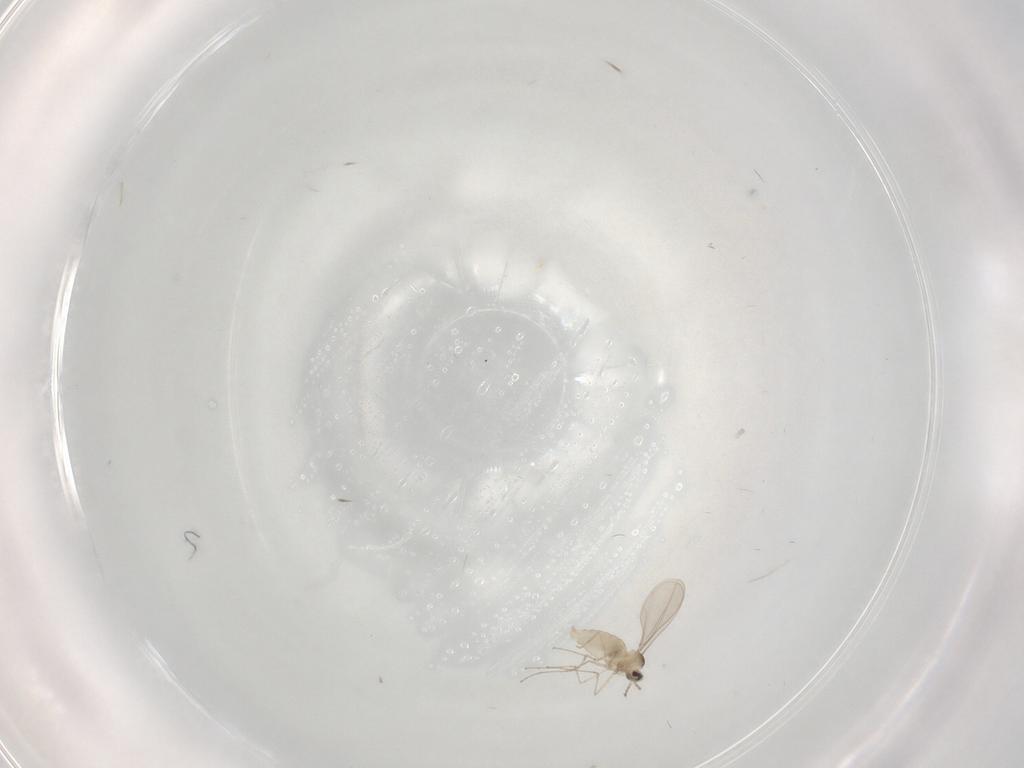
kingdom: Animalia
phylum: Arthropoda
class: Insecta
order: Diptera
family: Cecidomyiidae
